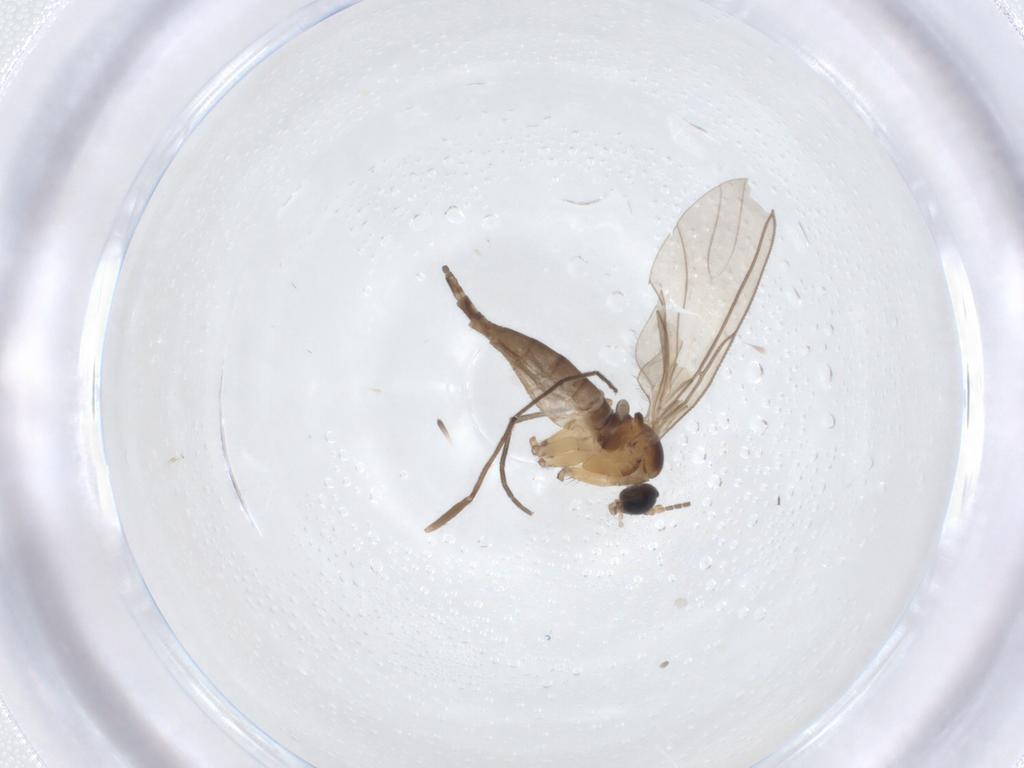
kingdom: Animalia
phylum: Arthropoda
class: Insecta
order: Diptera
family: Chironomidae
